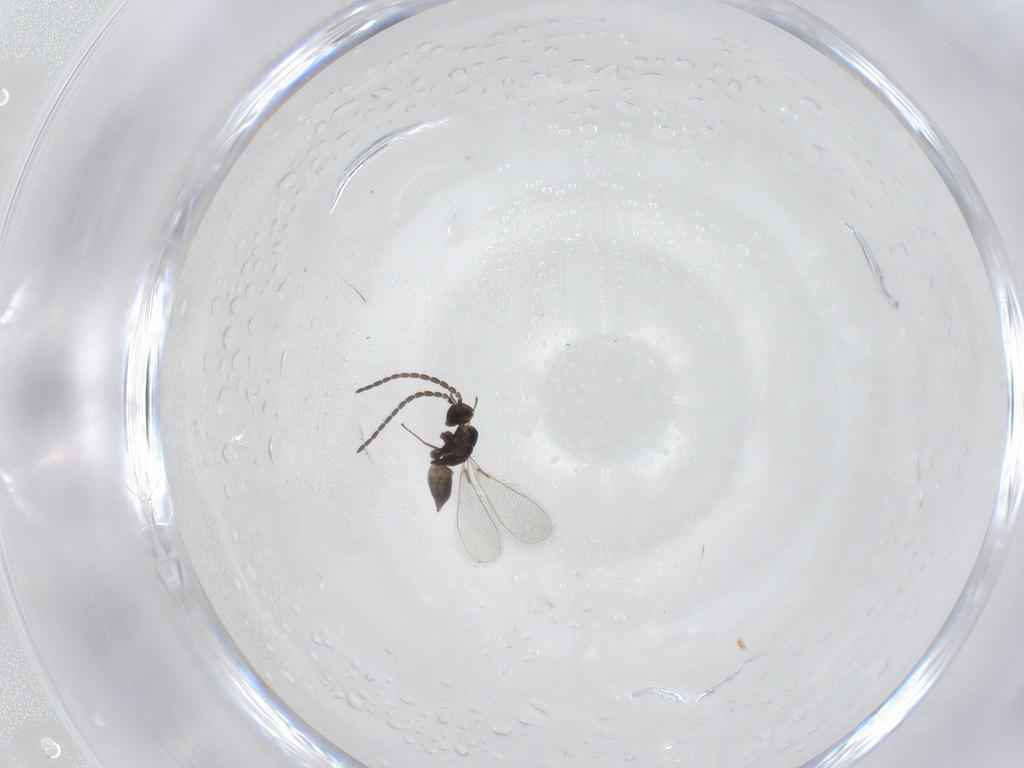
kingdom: Animalia
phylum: Arthropoda
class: Insecta
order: Hymenoptera
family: Mymaridae
